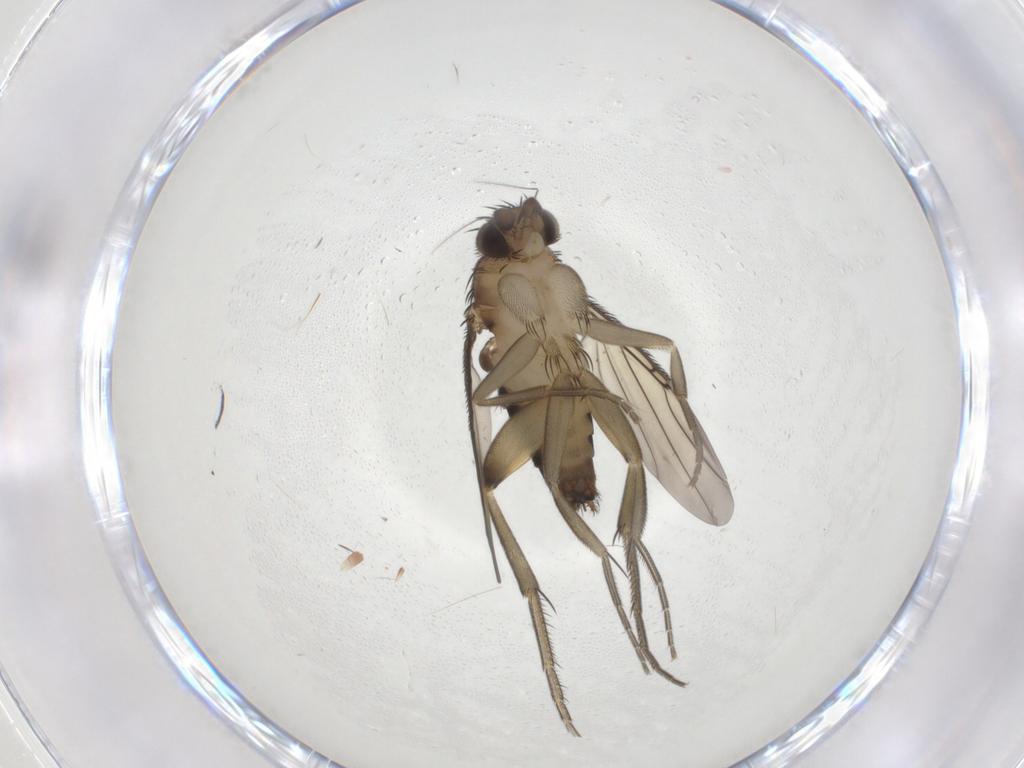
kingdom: Animalia
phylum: Arthropoda
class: Insecta
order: Diptera
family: Phoridae
